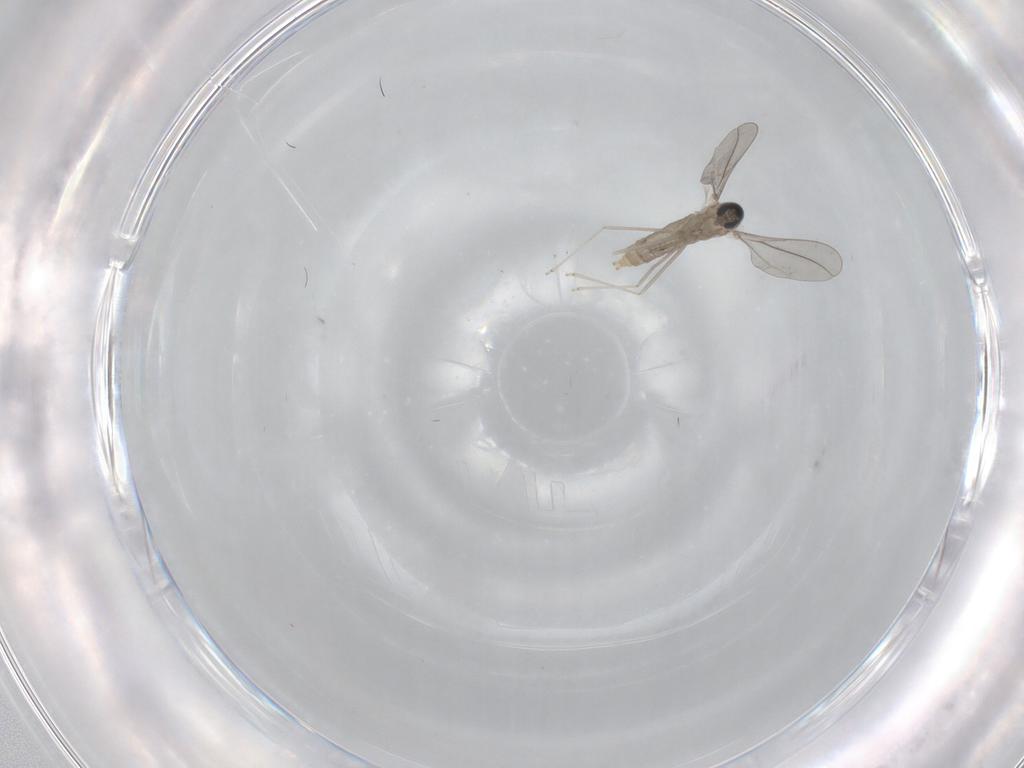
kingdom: Animalia
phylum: Arthropoda
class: Insecta
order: Diptera
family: Cecidomyiidae
